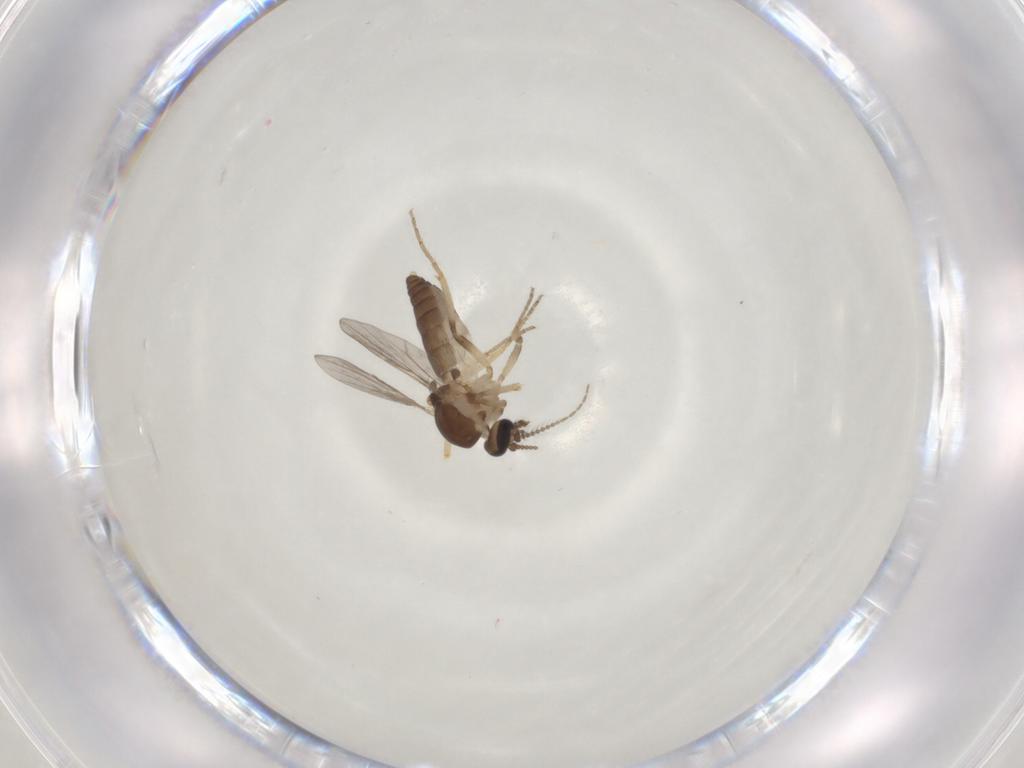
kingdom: Animalia
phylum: Arthropoda
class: Insecta
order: Diptera
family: Ceratopogonidae
